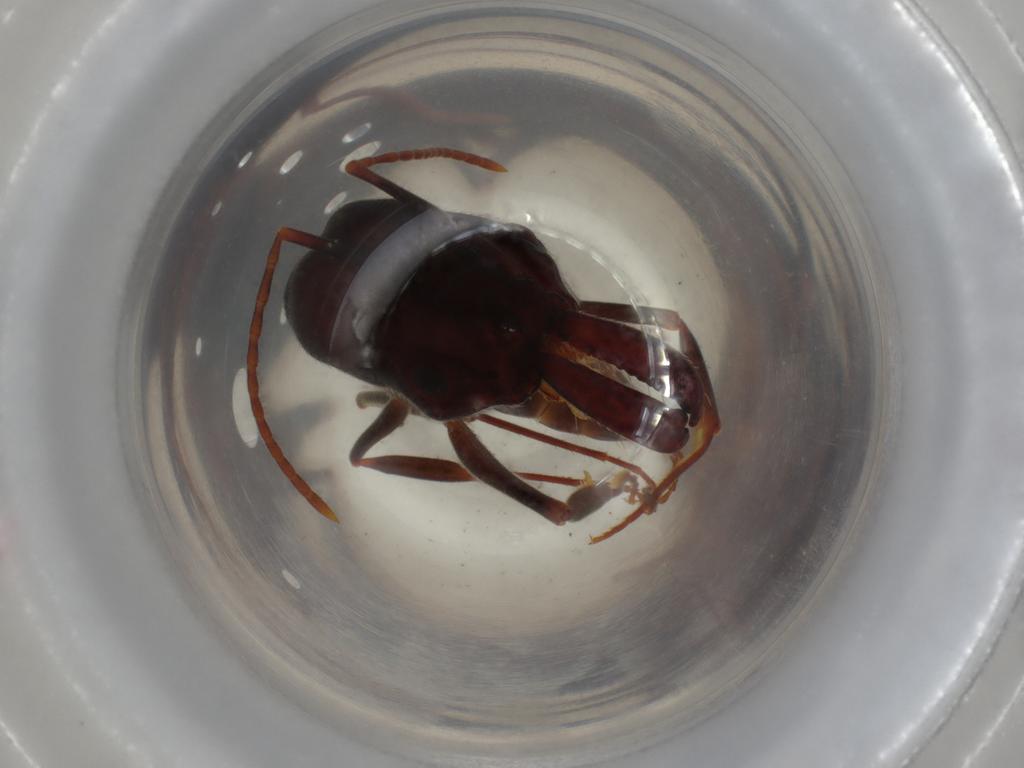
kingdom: Animalia
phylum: Arthropoda
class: Insecta
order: Hymenoptera
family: Formicidae
